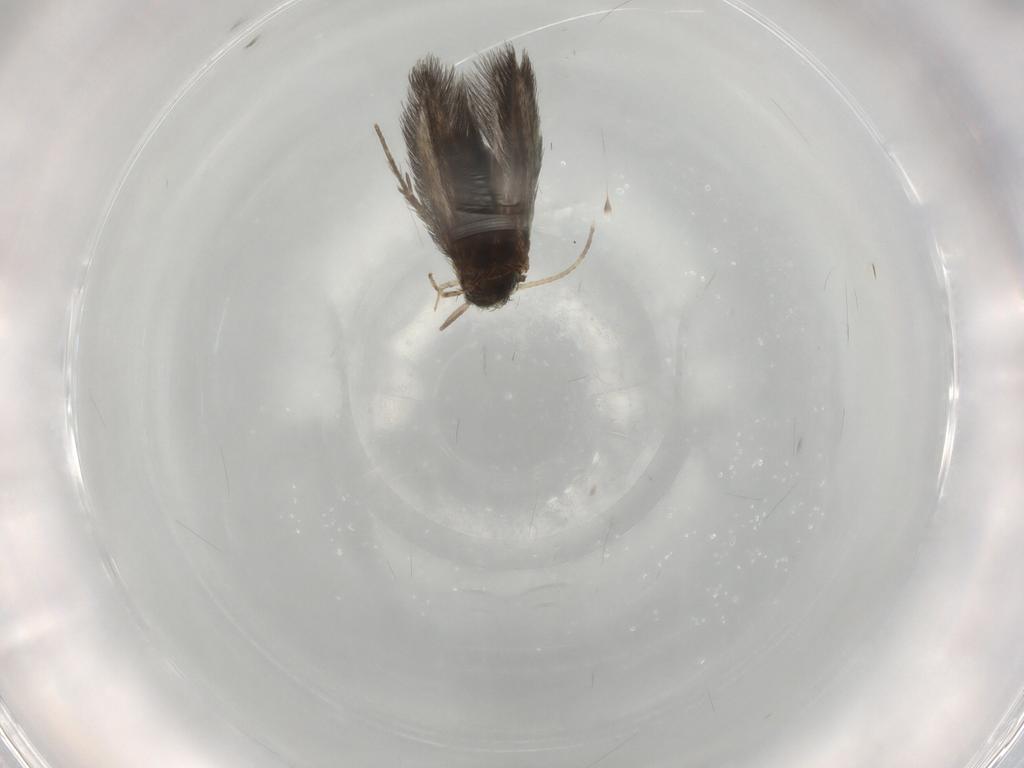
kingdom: Animalia
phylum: Arthropoda
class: Insecta
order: Trichoptera
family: Hydroptilidae
